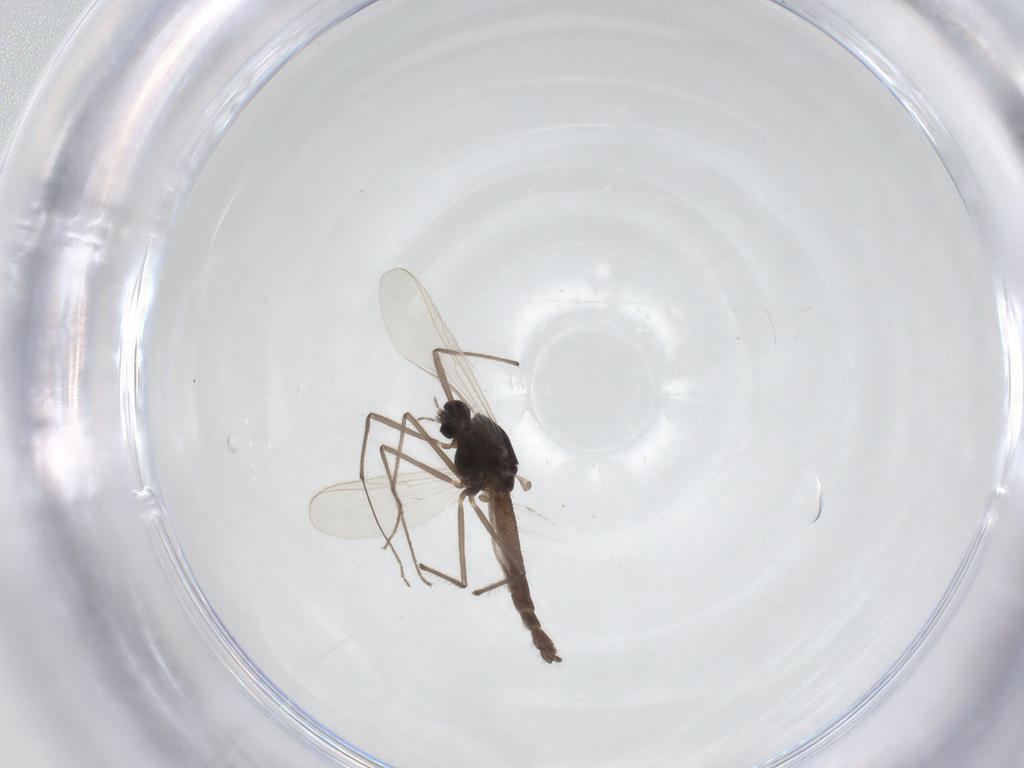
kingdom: Animalia
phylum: Arthropoda
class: Insecta
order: Diptera
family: Chironomidae
